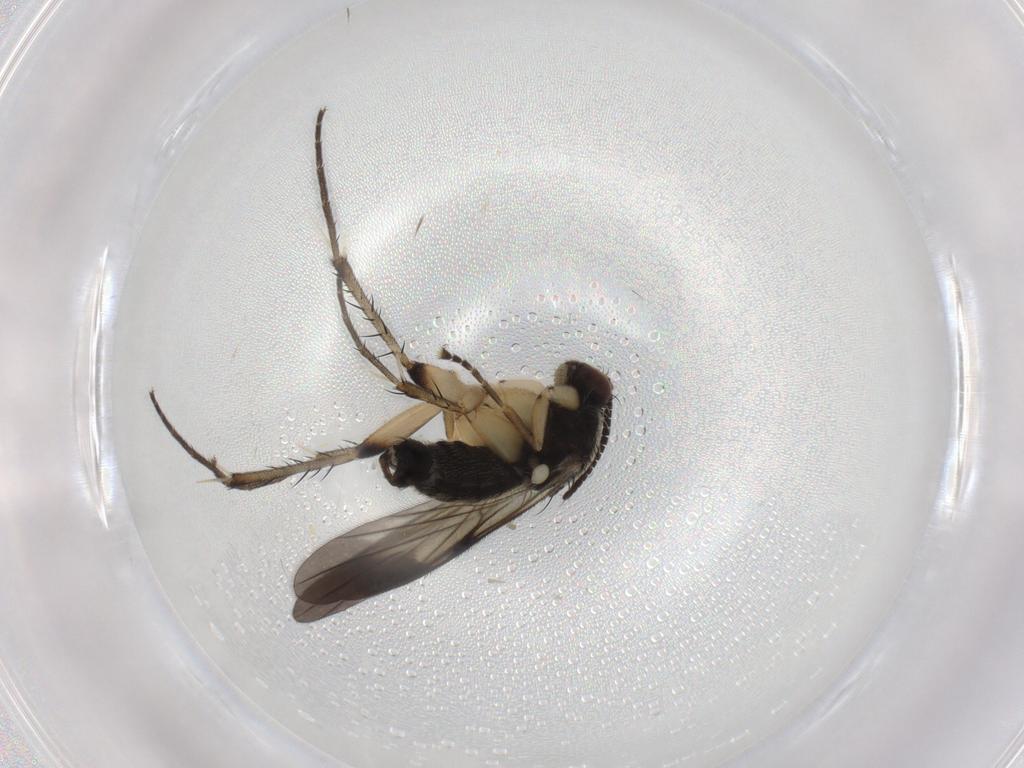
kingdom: Animalia
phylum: Arthropoda
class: Insecta
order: Diptera
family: Mycetophilidae
